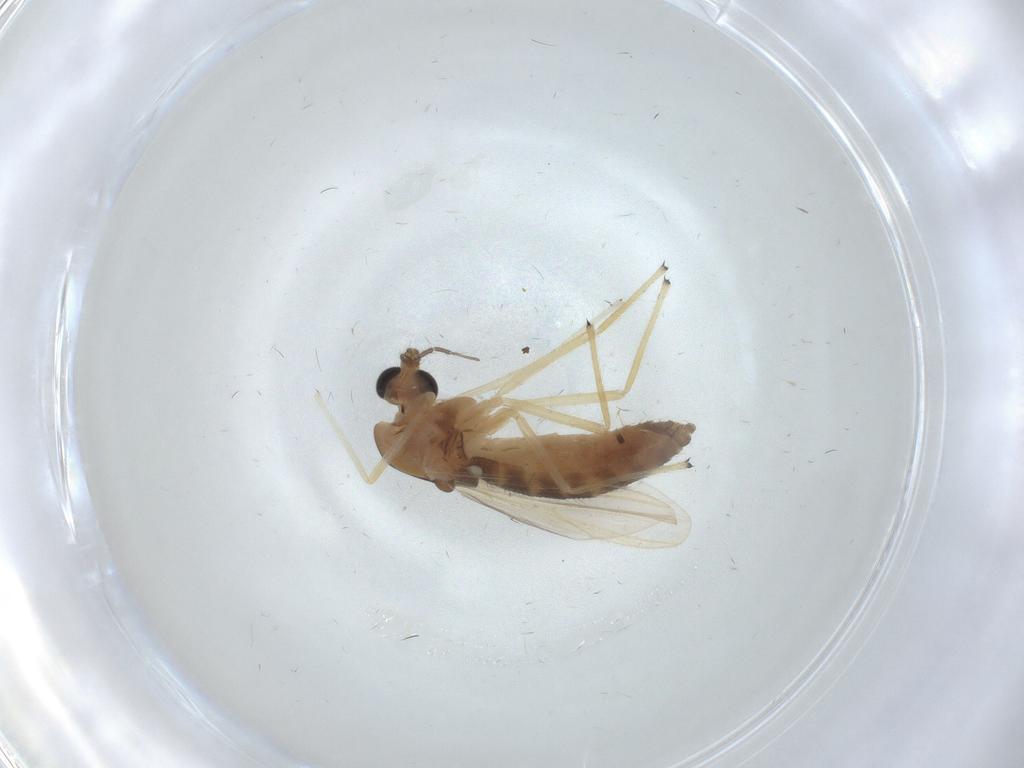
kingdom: Animalia
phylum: Arthropoda
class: Insecta
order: Diptera
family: Chironomidae
